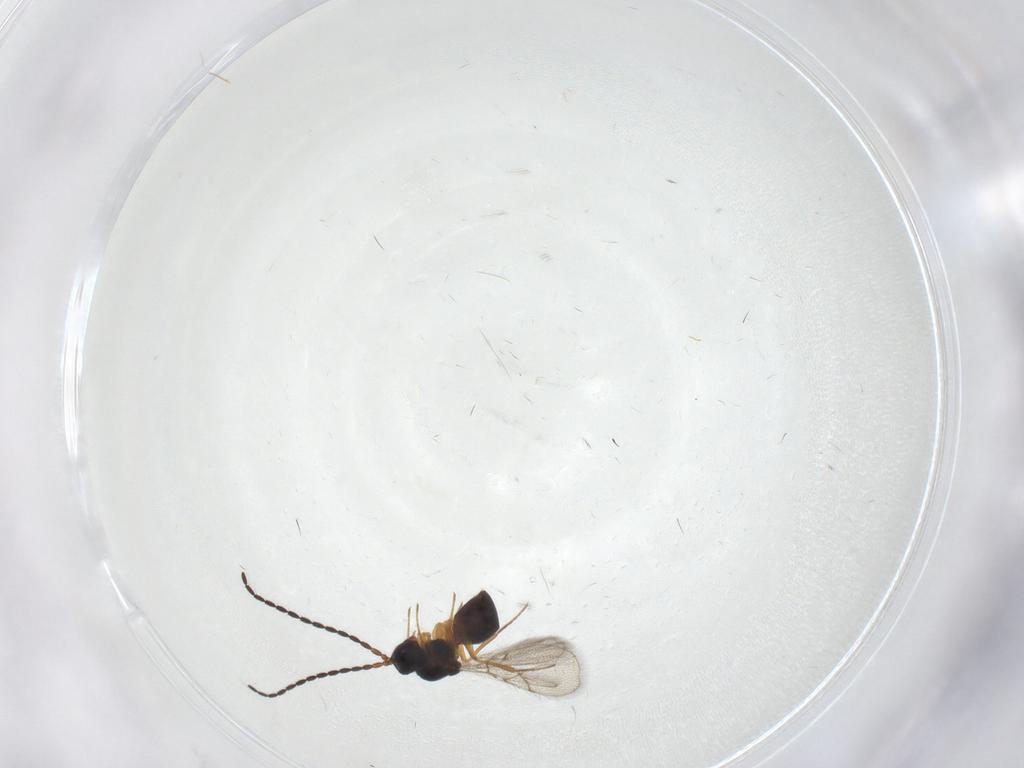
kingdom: Animalia
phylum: Arthropoda
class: Insecta
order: Hymenoptera
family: Figitidae
